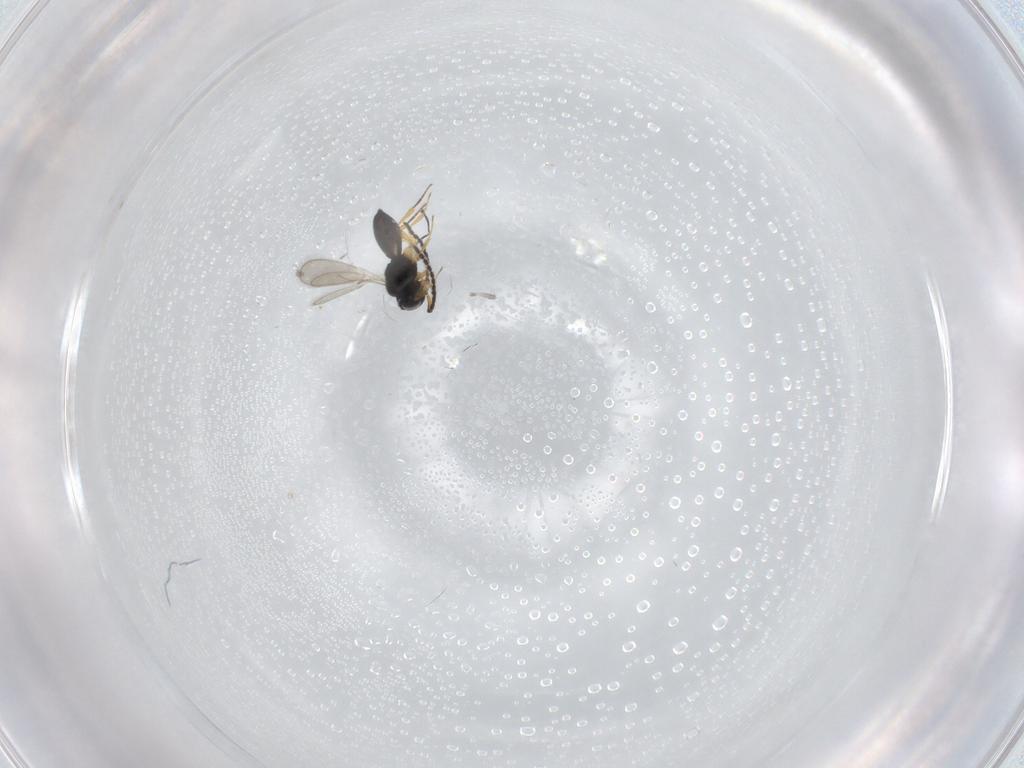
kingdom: Animalia
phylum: Arthropoda
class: Insecta
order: Hymenoptera
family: Scelionidae
